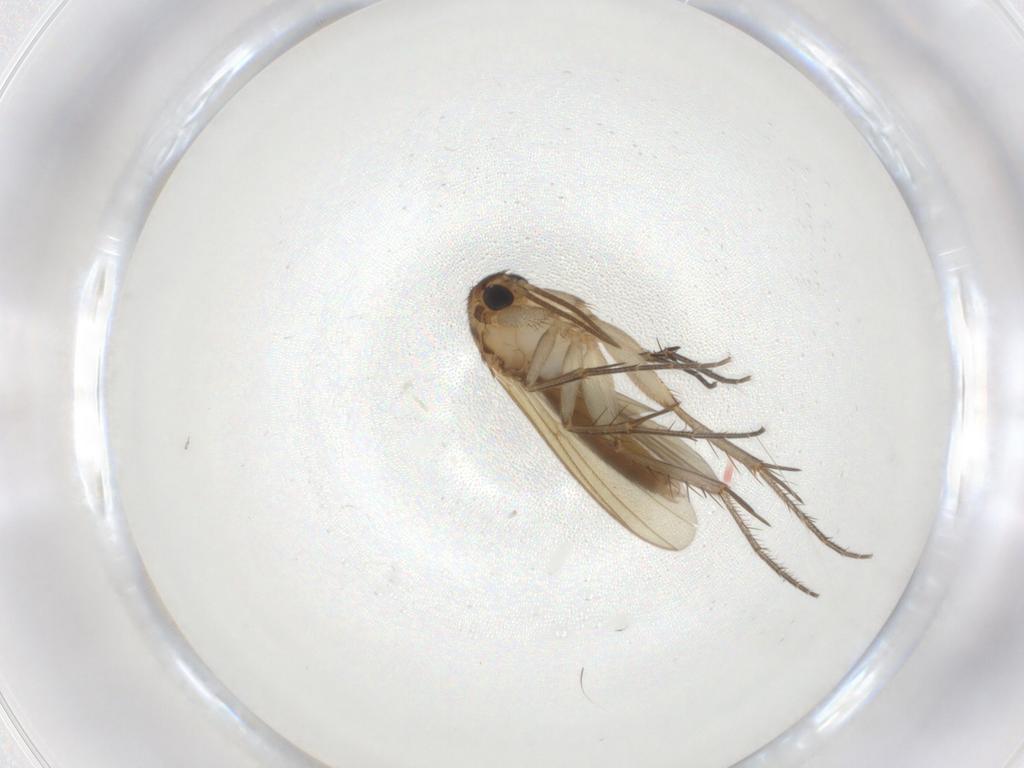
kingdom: Animalia
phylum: Arthropoda
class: Insecta
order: Diptera
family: Mycetophilidae
